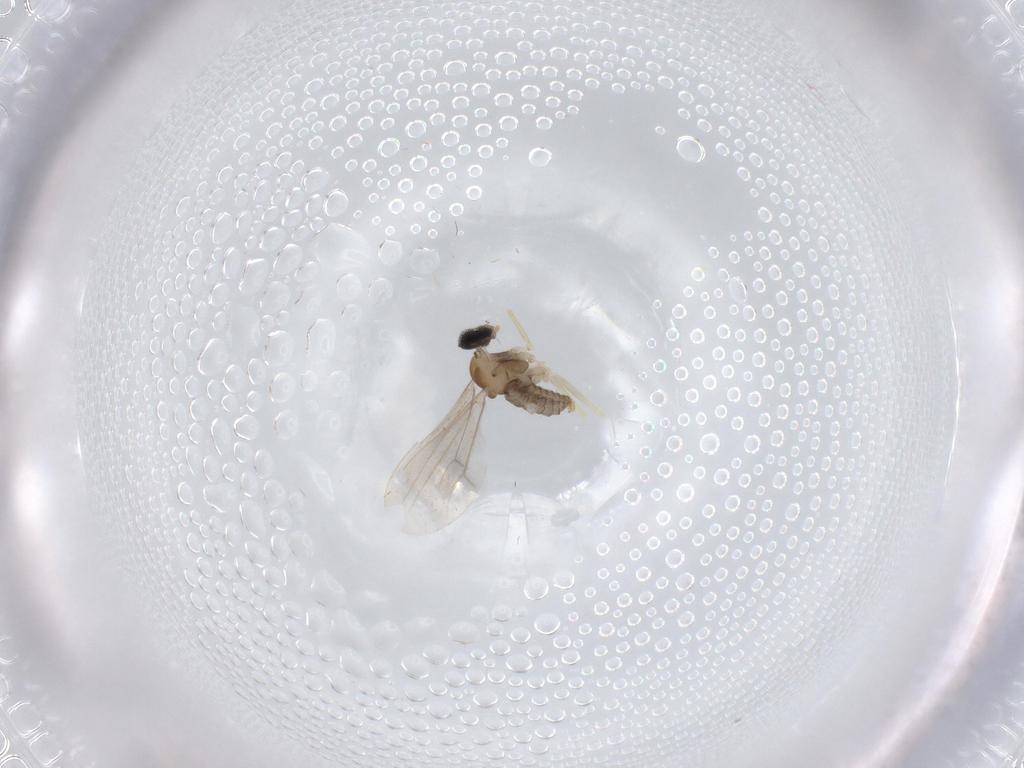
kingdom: Animalia
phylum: Arthropoda
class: Insecta
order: Diptera
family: Cecidomyiidae
